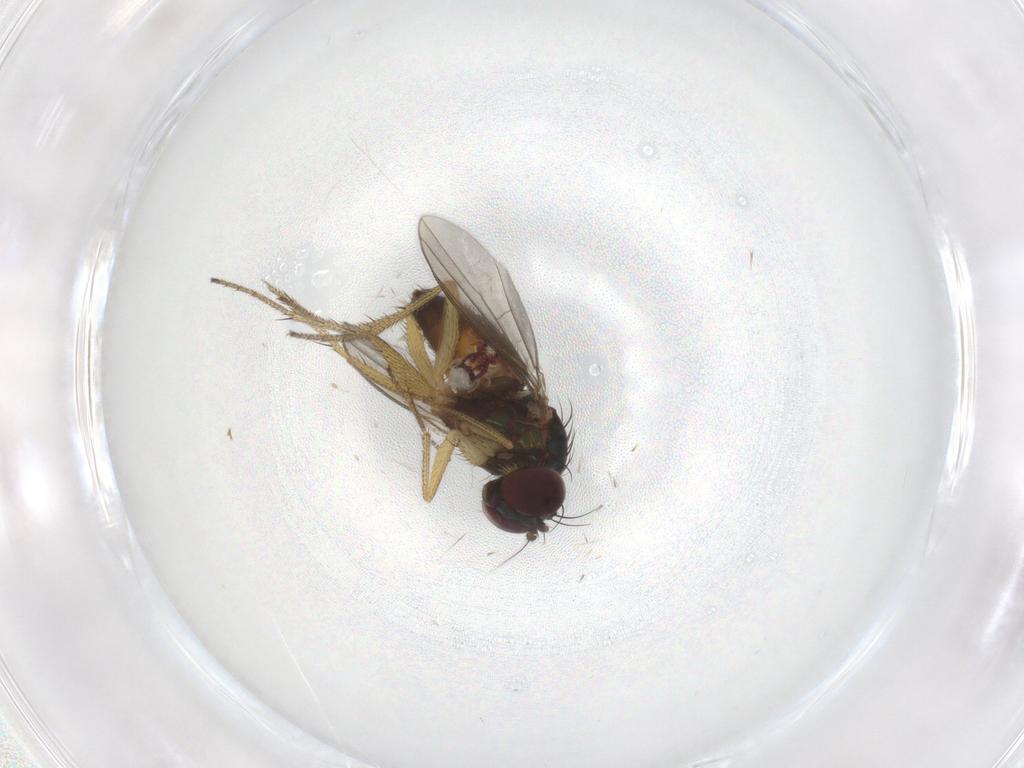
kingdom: Animalia
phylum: Arthropoda
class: Insecta
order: Diptera
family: Dolichopodidae
